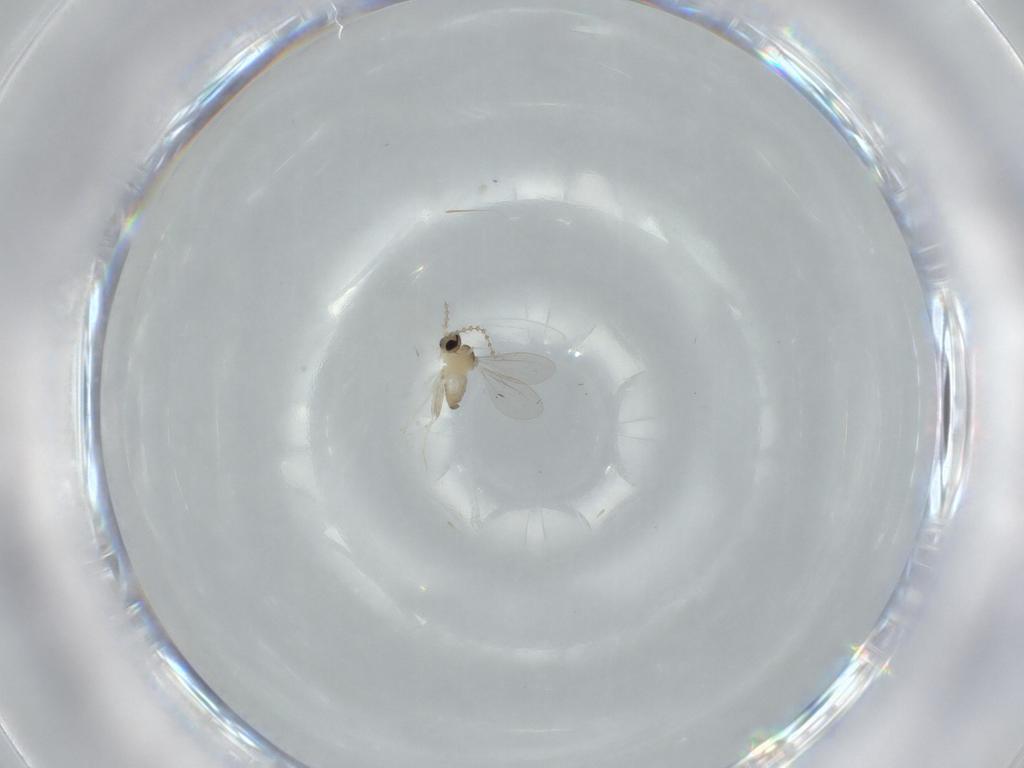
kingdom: Animalia
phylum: Arthropoda
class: Insecta
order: Diptera
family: Cecidomyiidae
